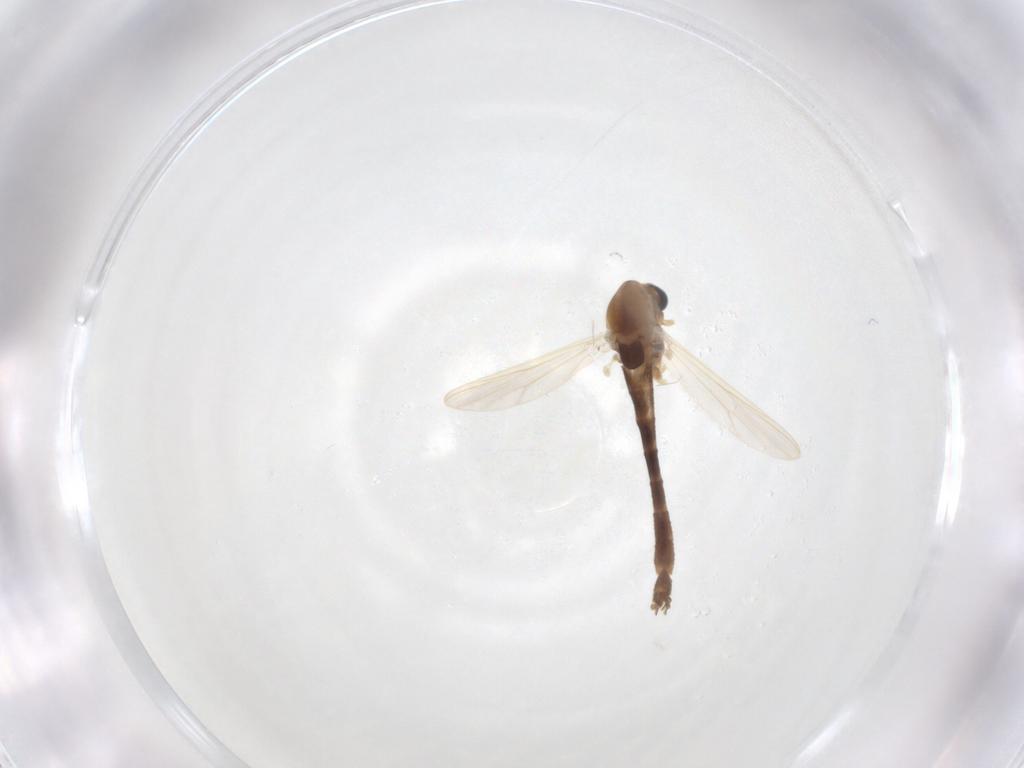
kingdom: Animalia
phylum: Arthropoda
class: Insecta
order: Diptera
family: Chironomidae
